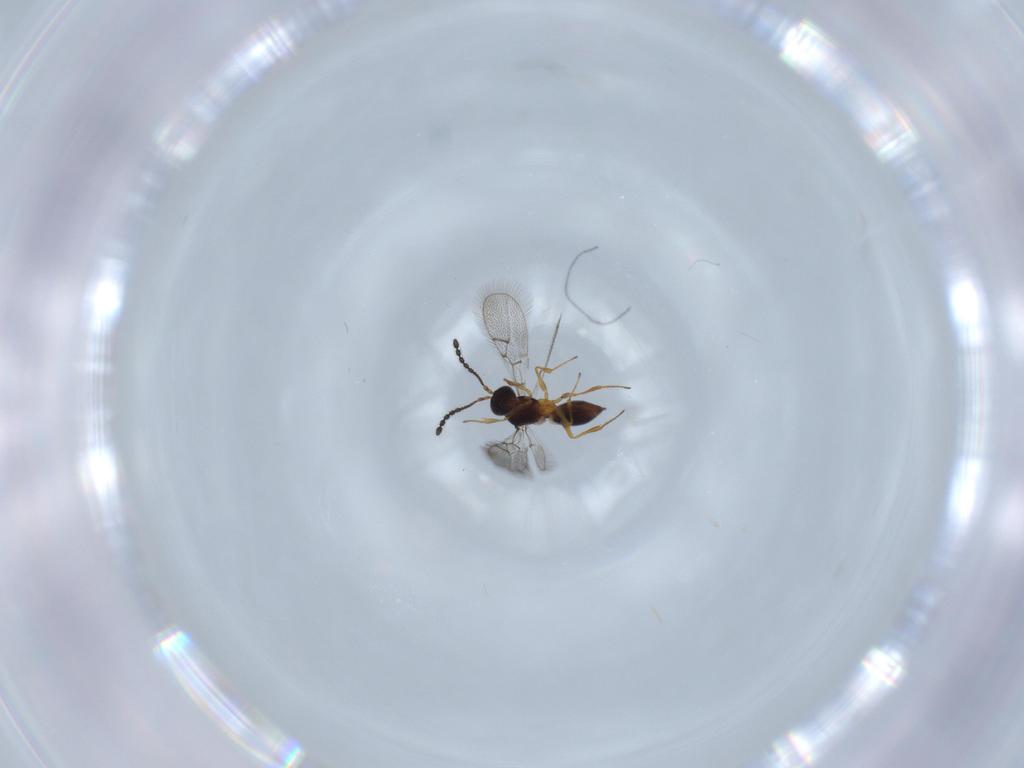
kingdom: Animalia
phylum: Arthropoda
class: Insecta
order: Hymenoptera
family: Figitidae
